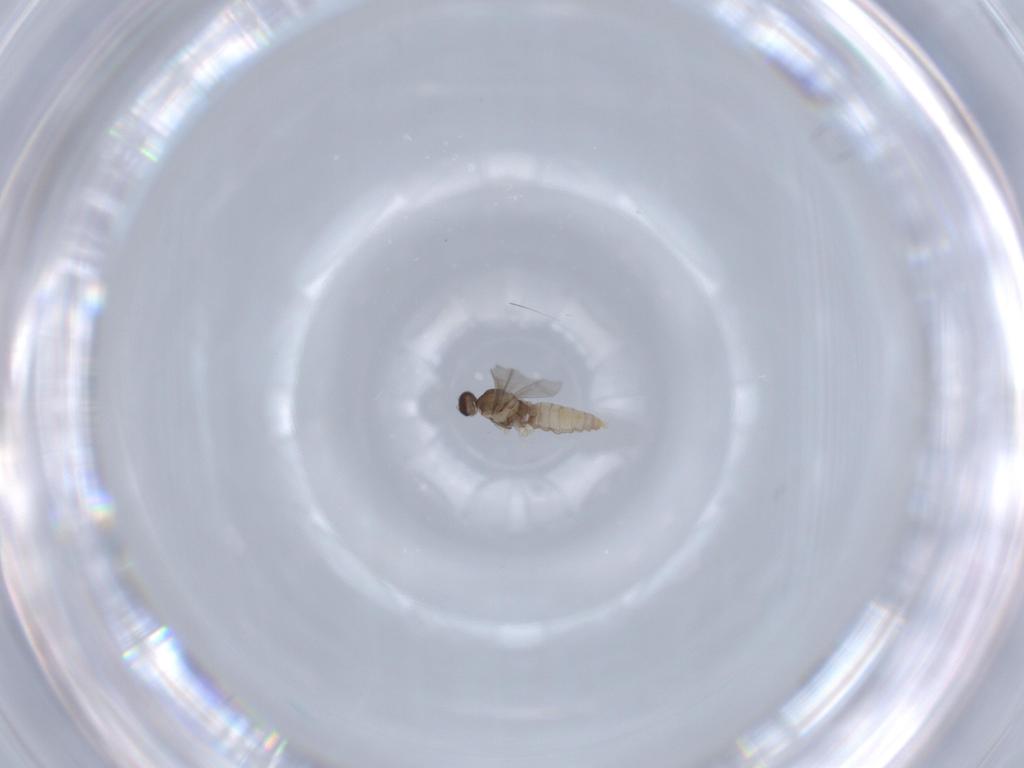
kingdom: Animalia
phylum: Arthropoda
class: Insecta
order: Diptera
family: Cecidomyiidae
